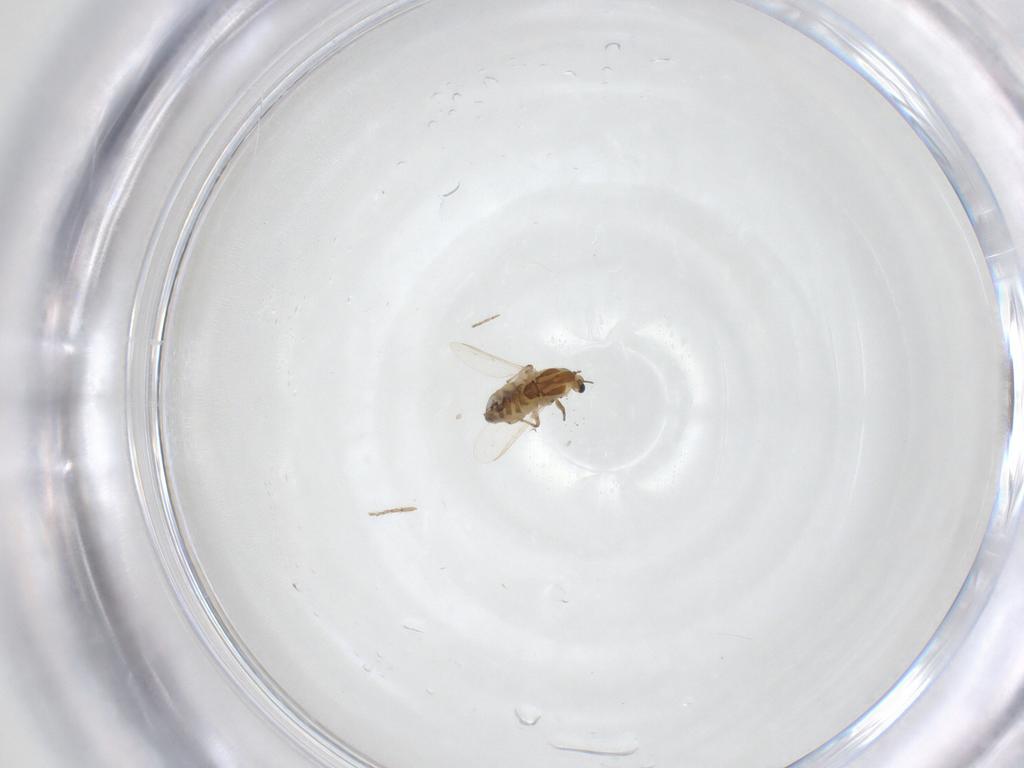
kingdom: Animalia
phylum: Arthropoda
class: Insecta
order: Diptera
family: Chironomidae
